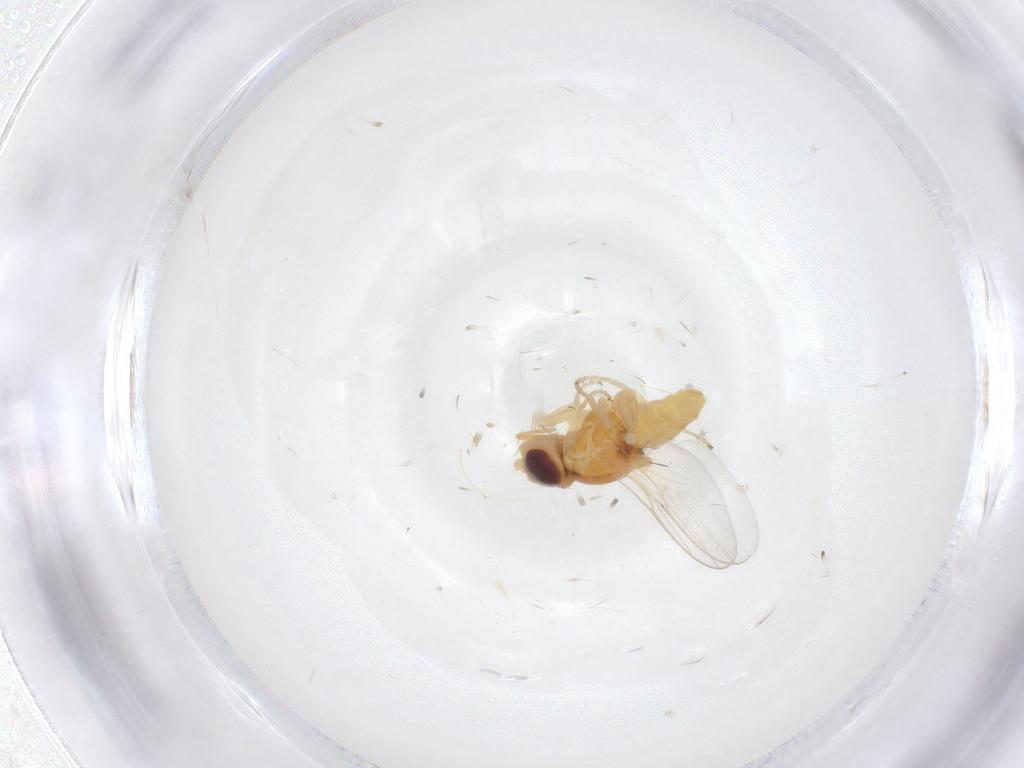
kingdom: Animalia
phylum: Arthropoda
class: Insecta
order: Diptera
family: Chloropidae
